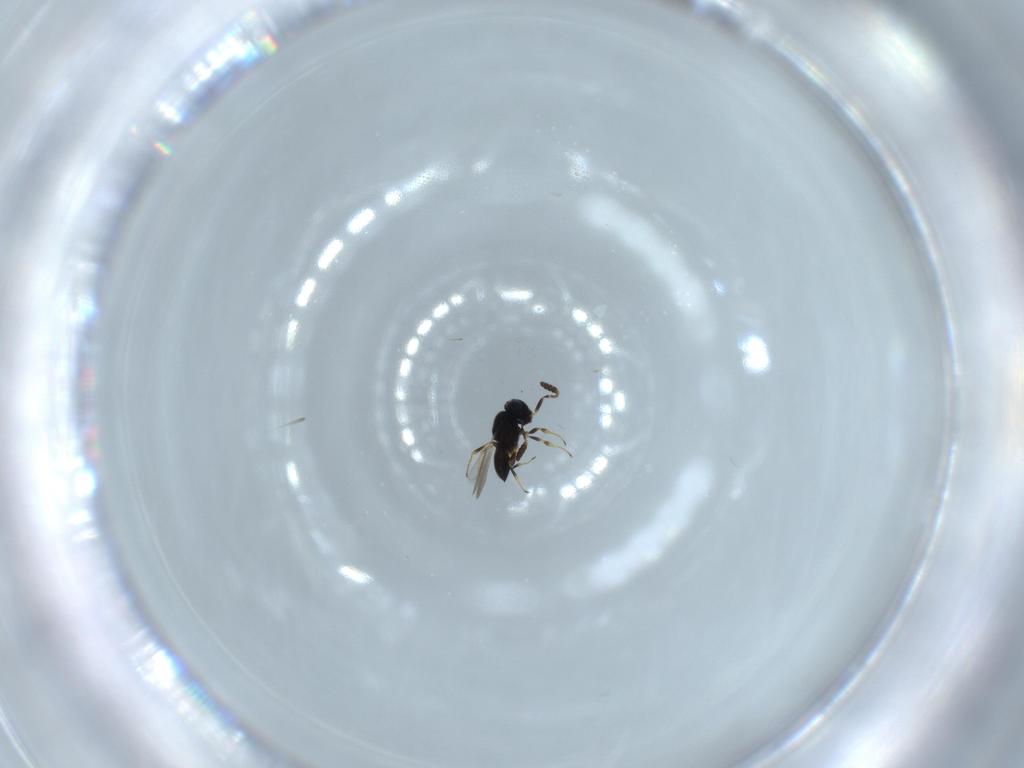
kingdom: Animalia
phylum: Arthropoda
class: Insecta
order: Hymenoptera
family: Scelionidae
